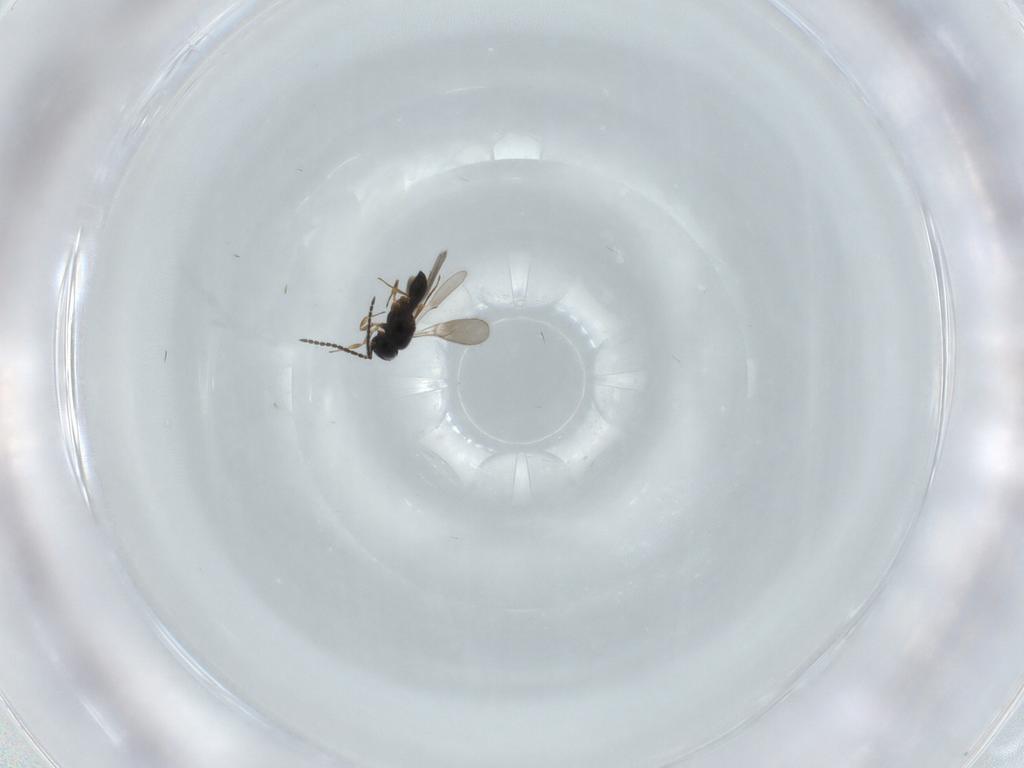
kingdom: Animalia
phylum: Arthropoda
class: Insecta
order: Hymenoptera
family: Scelionidae
